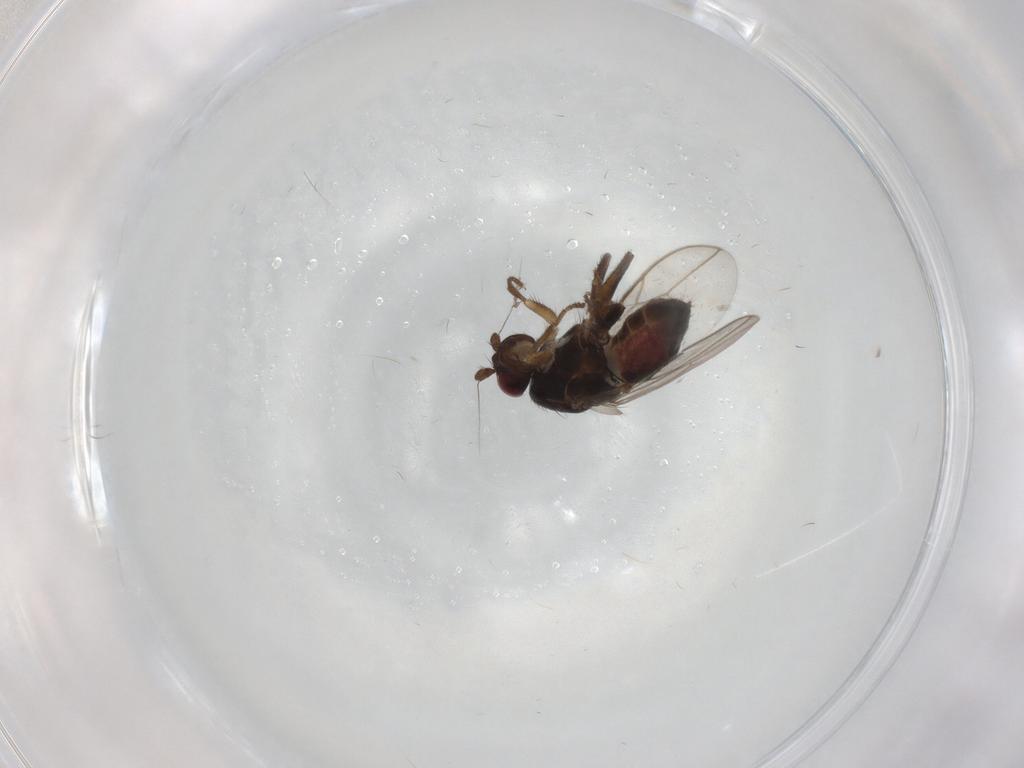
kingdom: Animalia
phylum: Arthropoda
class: Insecta
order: Diptera
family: Sphaeroceridae
